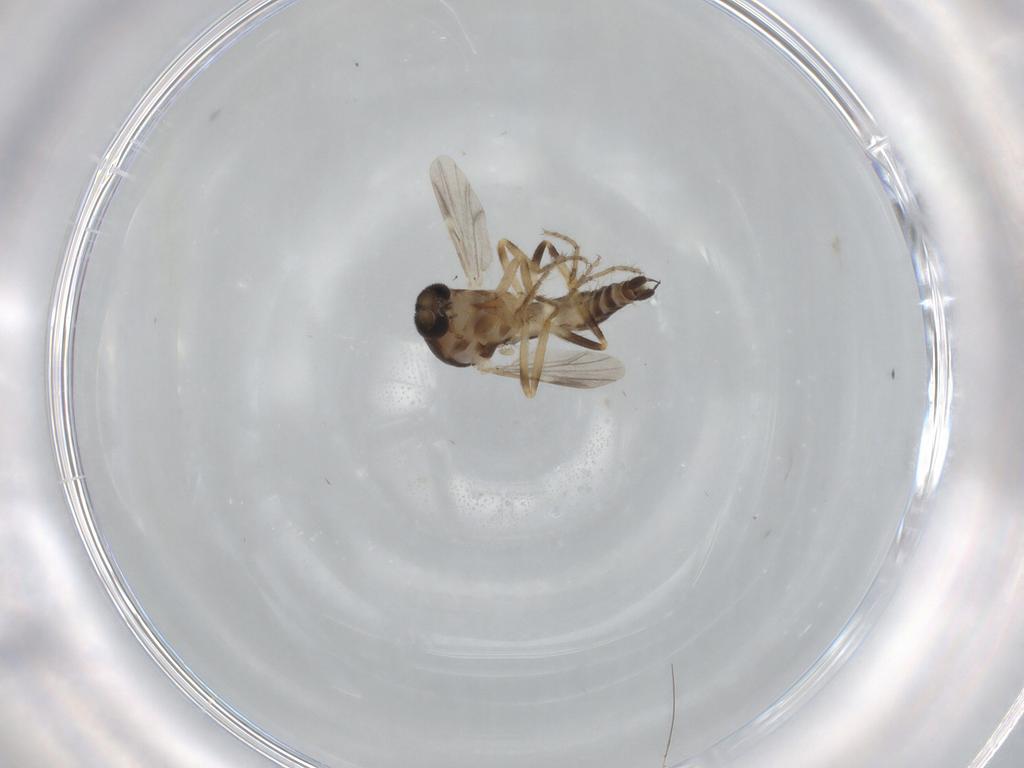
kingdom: Animalia
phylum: Arthropoda
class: Insecta
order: Diptera
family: Ceratopogonidae
